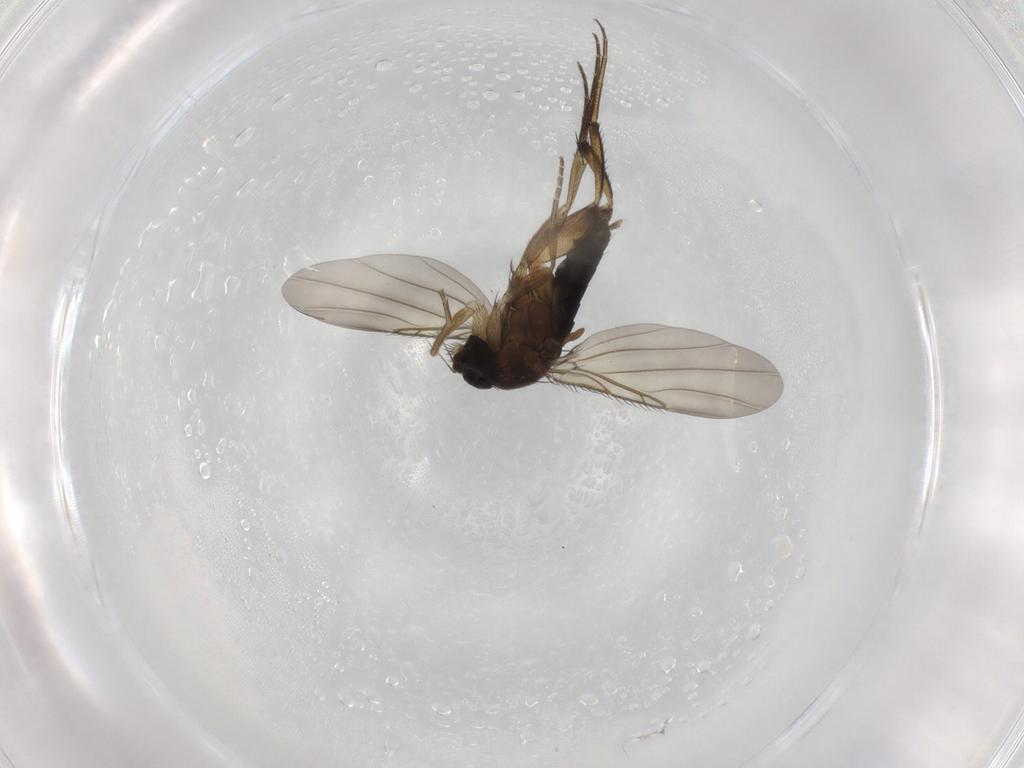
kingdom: Animalia
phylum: Arthropoda
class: Insecta
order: Diptera
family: Phoridae
